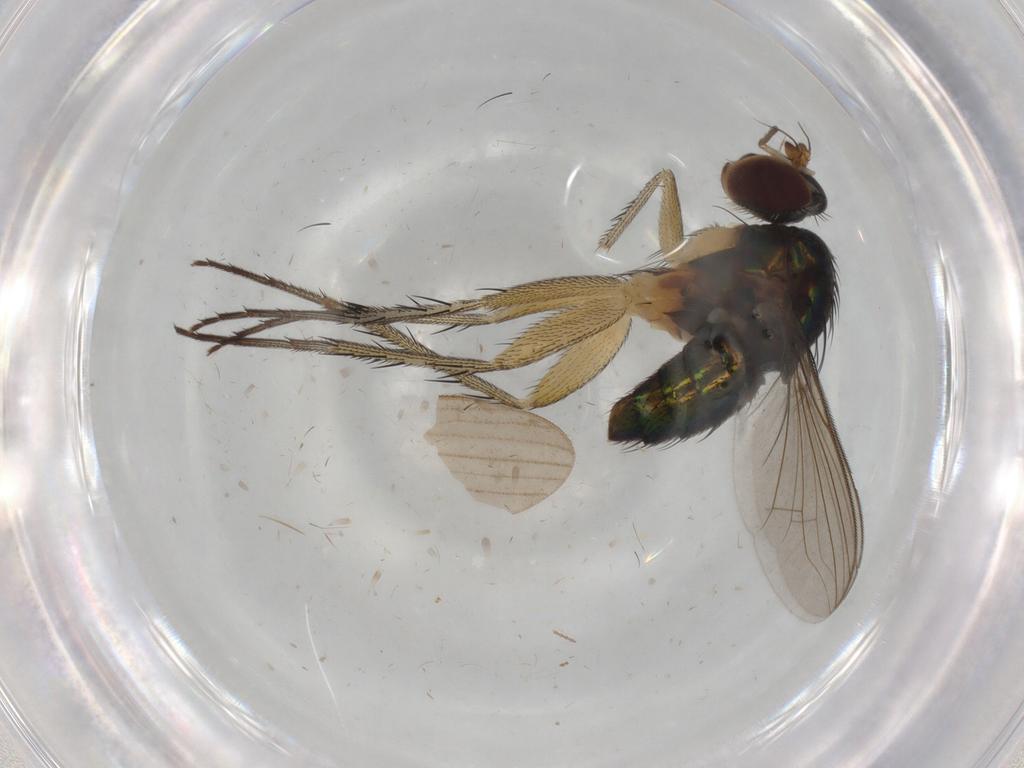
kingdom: Animalia
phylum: Arthropoda
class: Insecta
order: Diptera
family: Dolichopodidae
